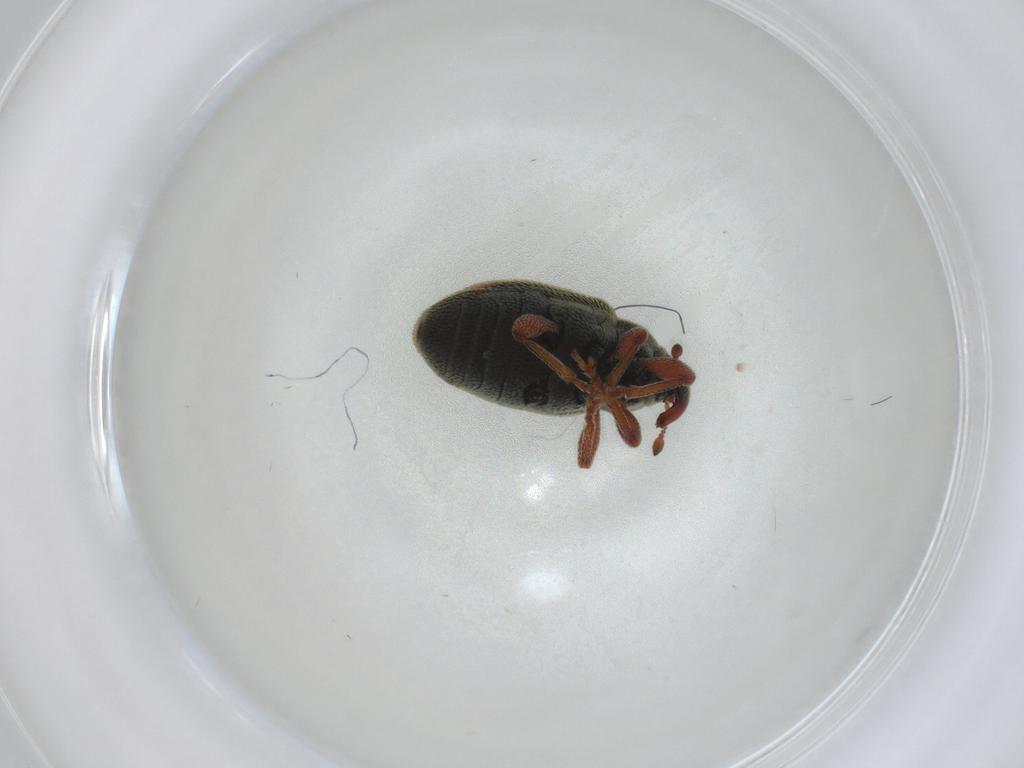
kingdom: Animalia
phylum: Arthropoda
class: Insecta
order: Coleoptera
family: Curculionidae
